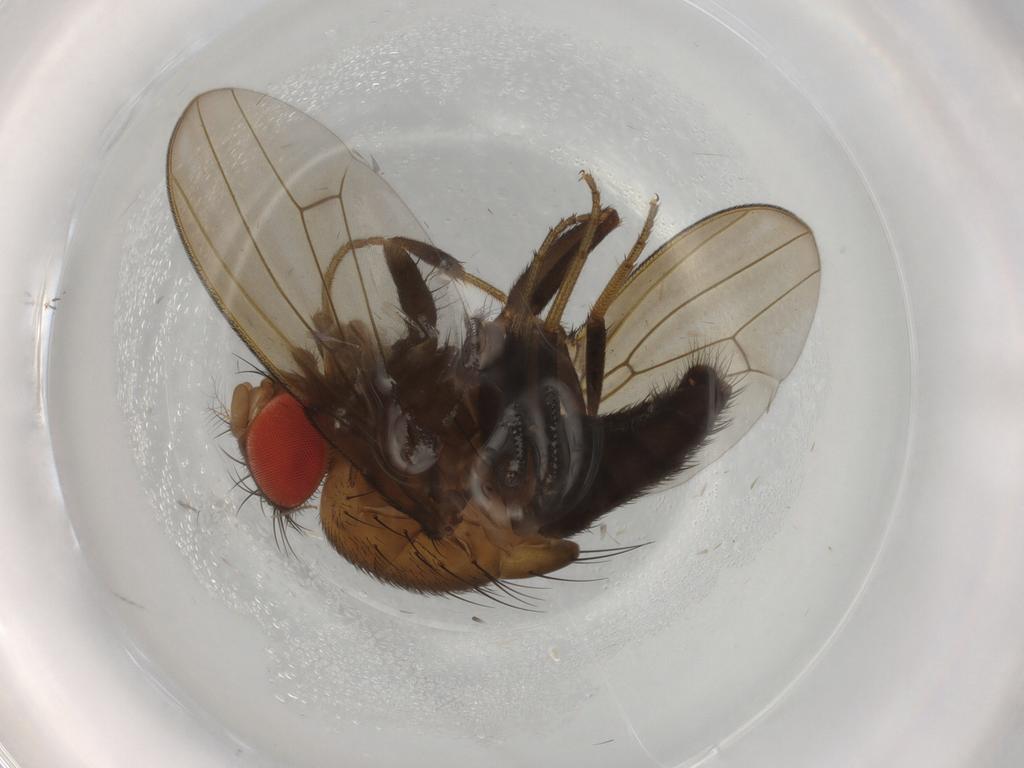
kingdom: Animalia
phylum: Arthropoda
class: Insecta
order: Diptera
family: Drosophilidae
